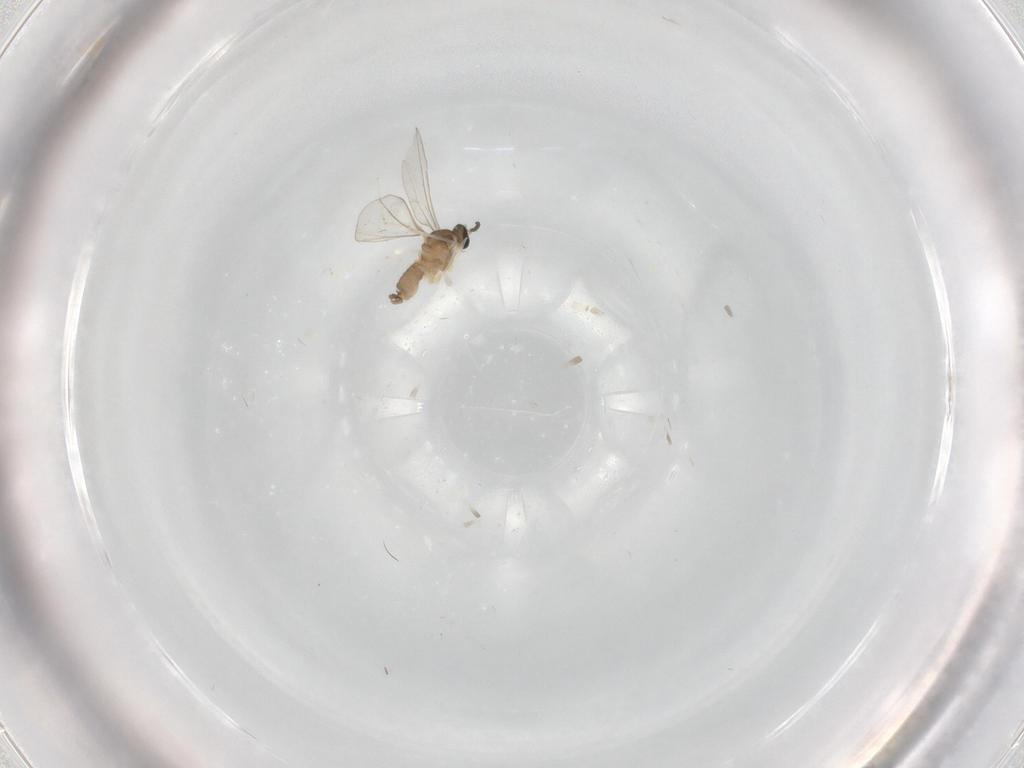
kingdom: Animalia
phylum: Arthropoda
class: Insecta
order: Diptera
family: Cecidomyiidae
